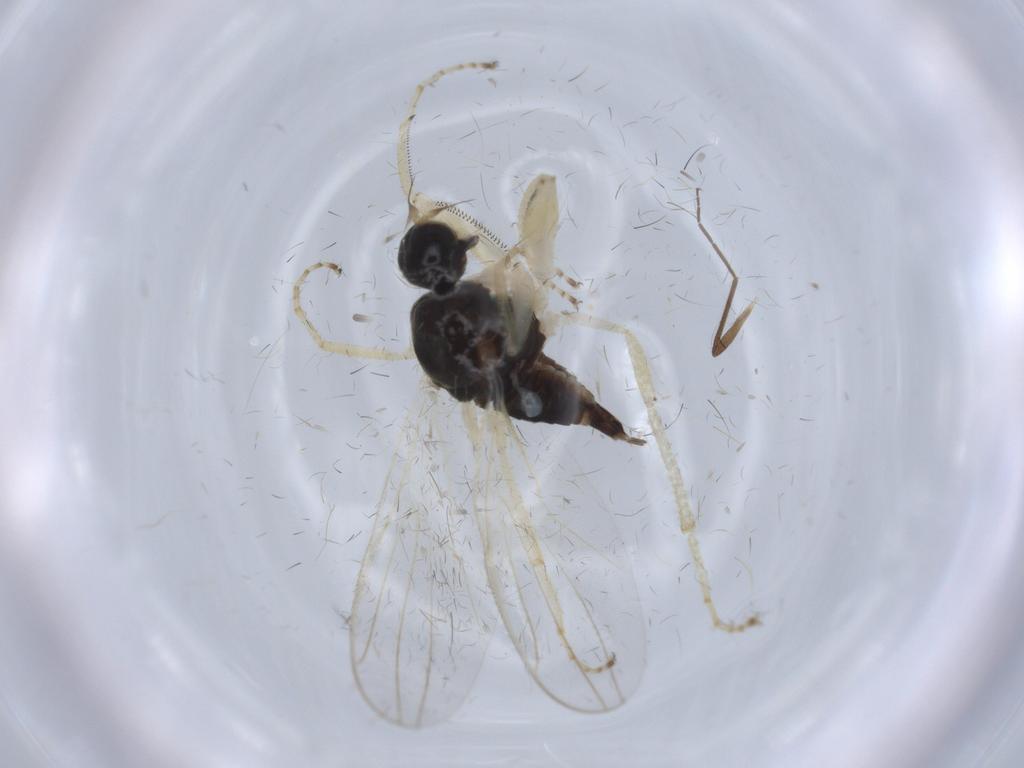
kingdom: Animalia
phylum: Arthropoda
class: Insecta
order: Diptera
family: Hybotidae
